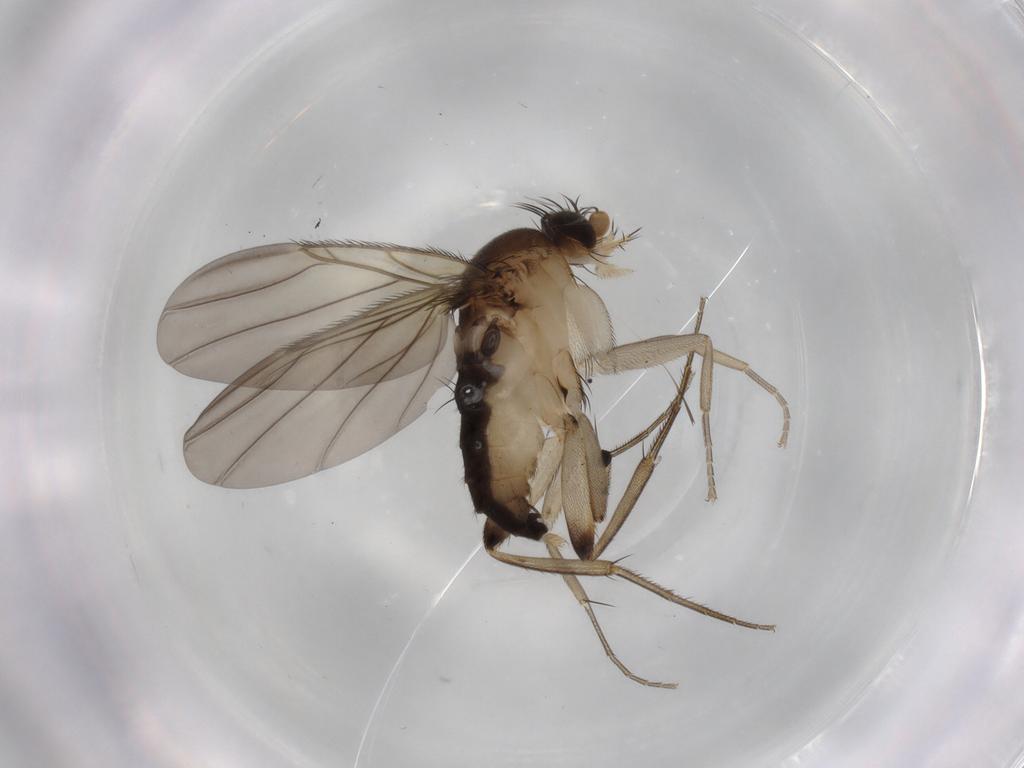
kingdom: Animalia
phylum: Arthropoda
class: Insecta
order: Diptera
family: Phoridae
